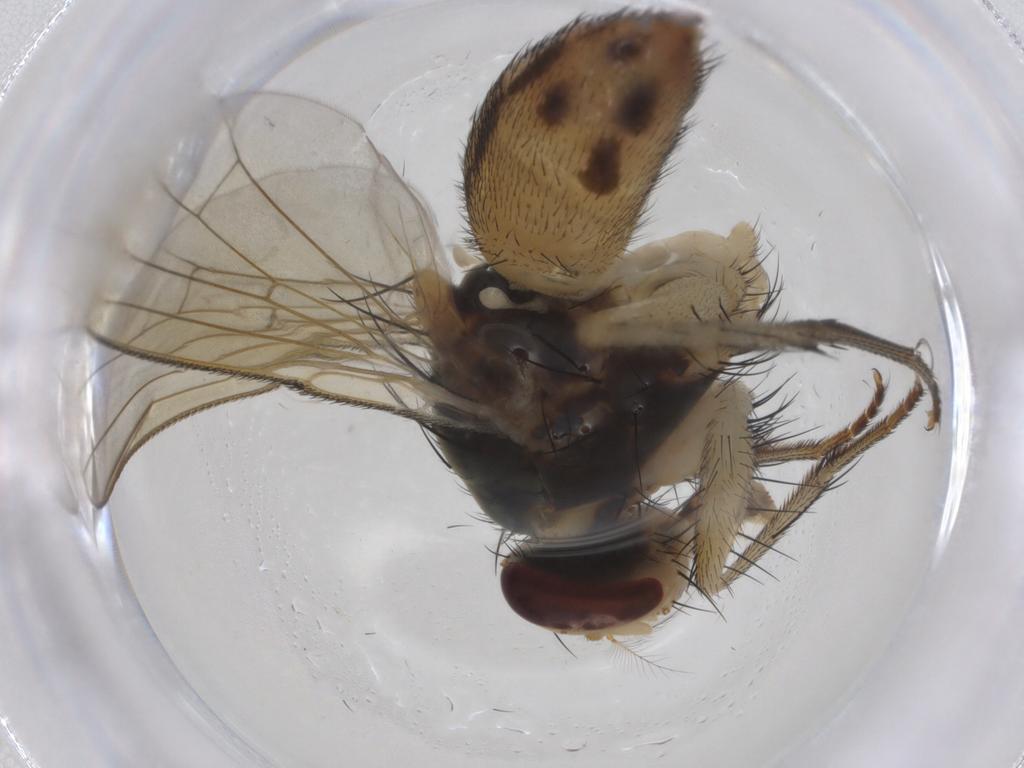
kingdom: Animalia
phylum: Arthropoda
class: Insecta
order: Diptera
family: Muscidae
